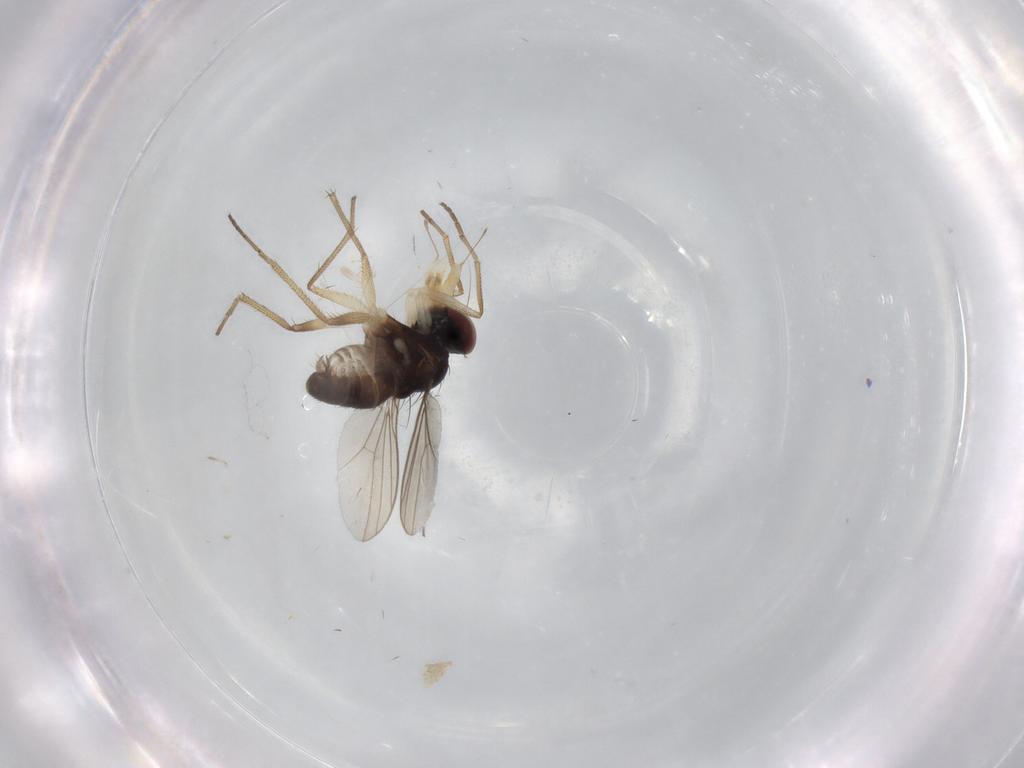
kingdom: Animalia
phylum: Arthropoda
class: Insecta
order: Diptera
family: Dolichopodidae
